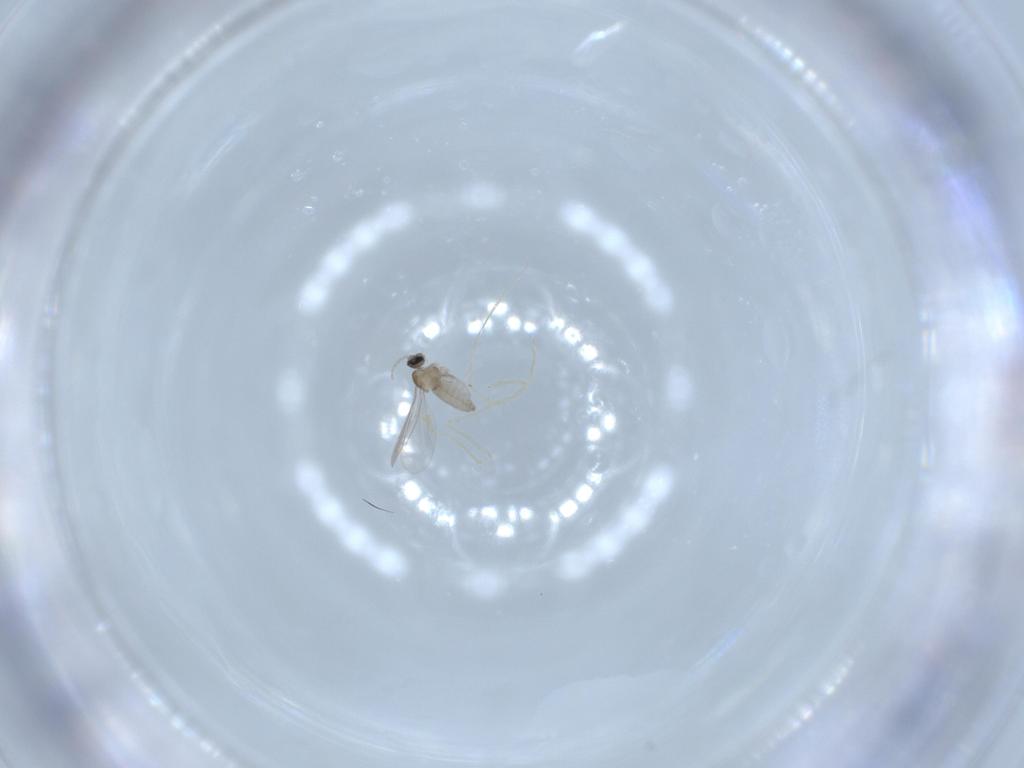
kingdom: Animalia
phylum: Arthropoda
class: Insecta
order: Diptera
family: Cecidomyiidae
